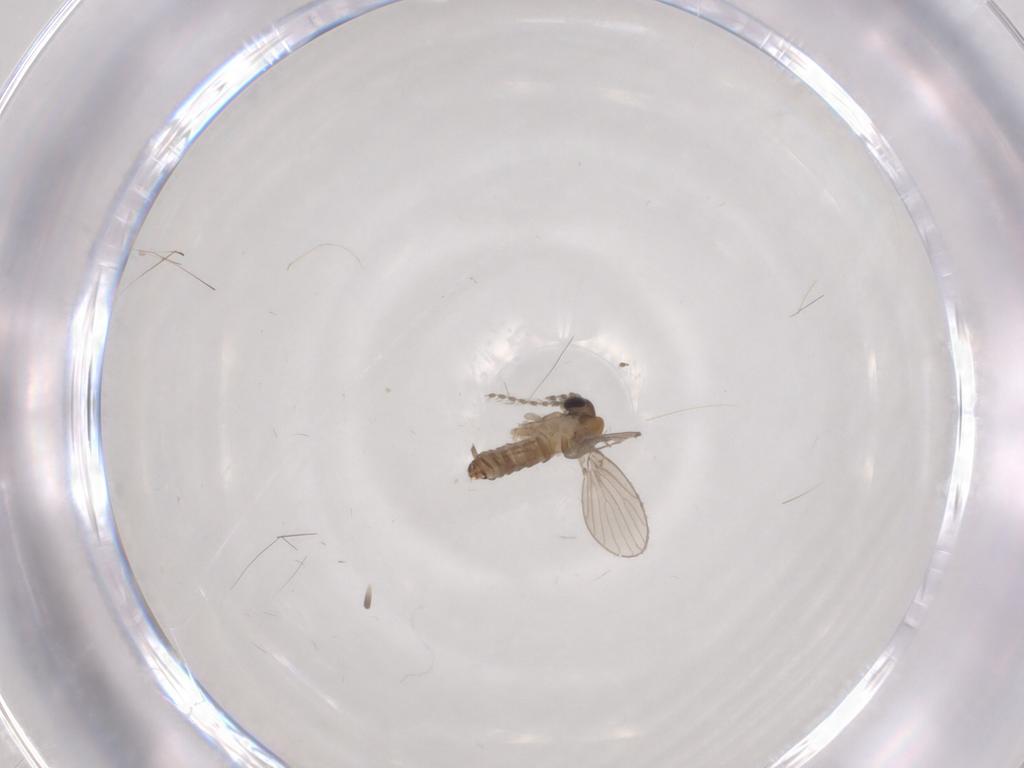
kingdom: Animalia
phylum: Arthropoda
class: Insecta
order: Diptera
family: Psychodidae
